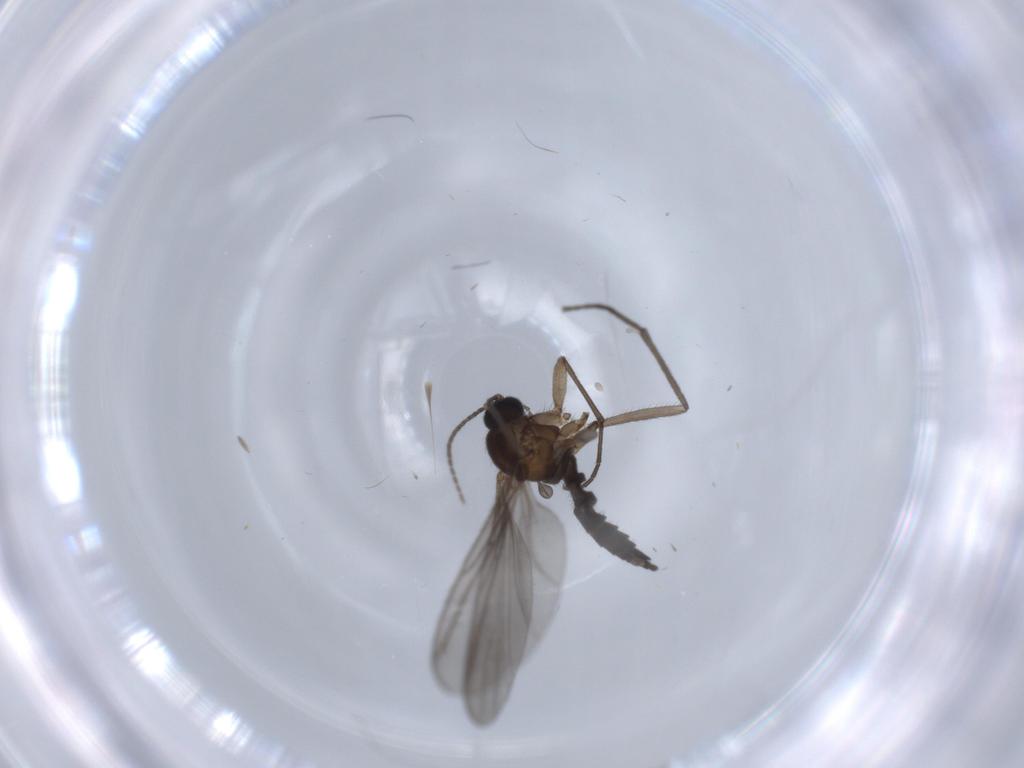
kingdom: Animalia
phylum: Arthropoda
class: Insecta
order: Diptera
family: Sciaridae
